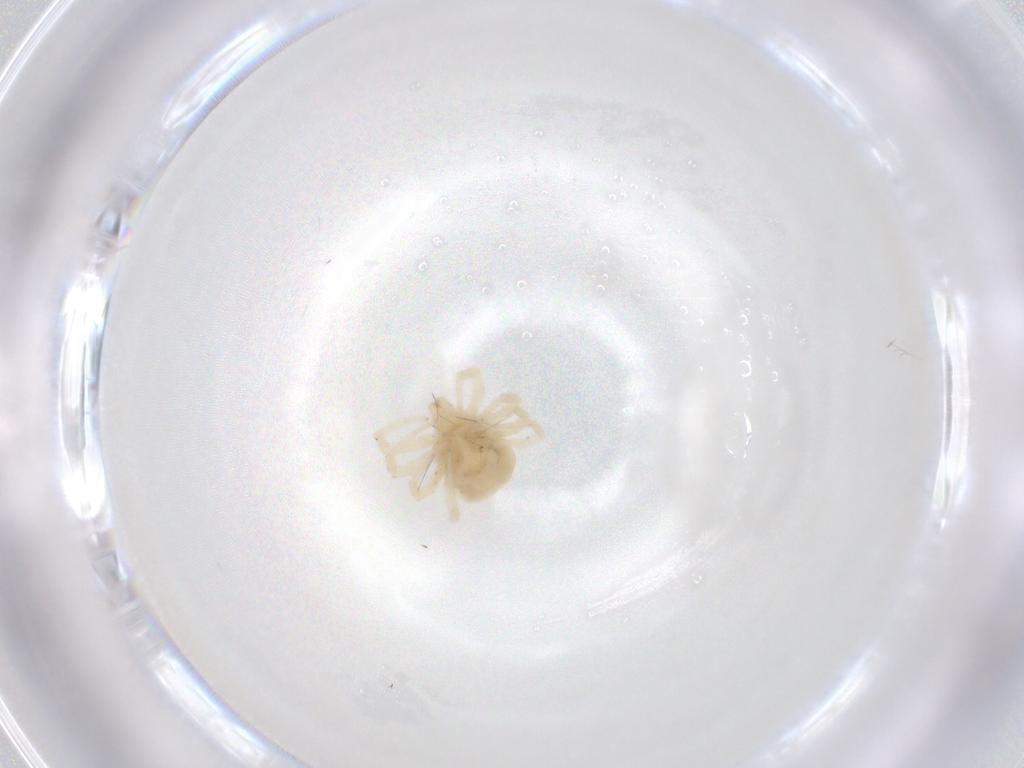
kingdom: Animalia
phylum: Arthropoda
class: Arachnida
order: Trombidiformes
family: Anystidae
